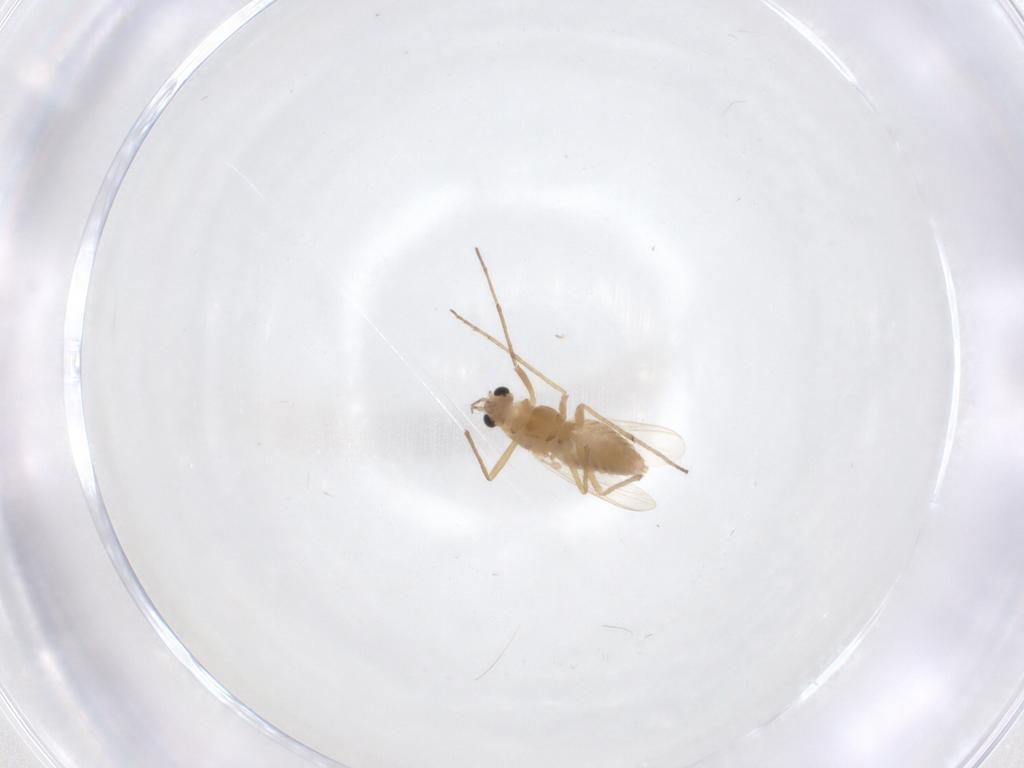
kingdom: Animalia
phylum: Arthropoda
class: Insecta
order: Diptera
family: Chironomidae
